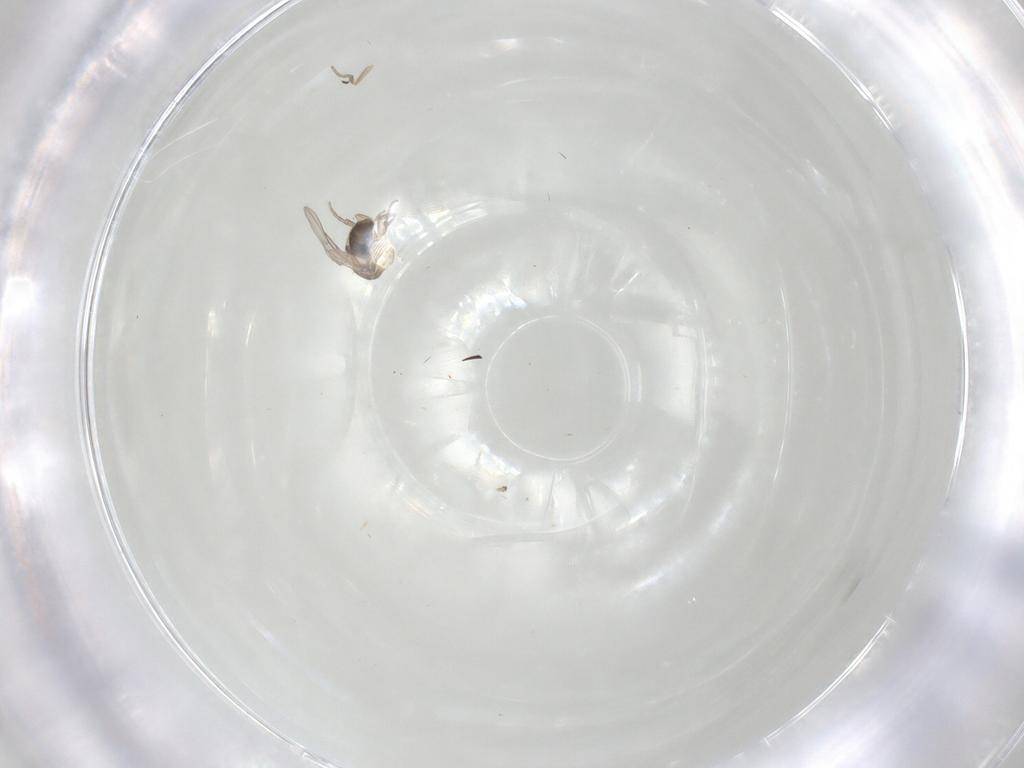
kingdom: Animalia
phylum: Arthropoda
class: Insecta
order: Diptera
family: Phoridae
